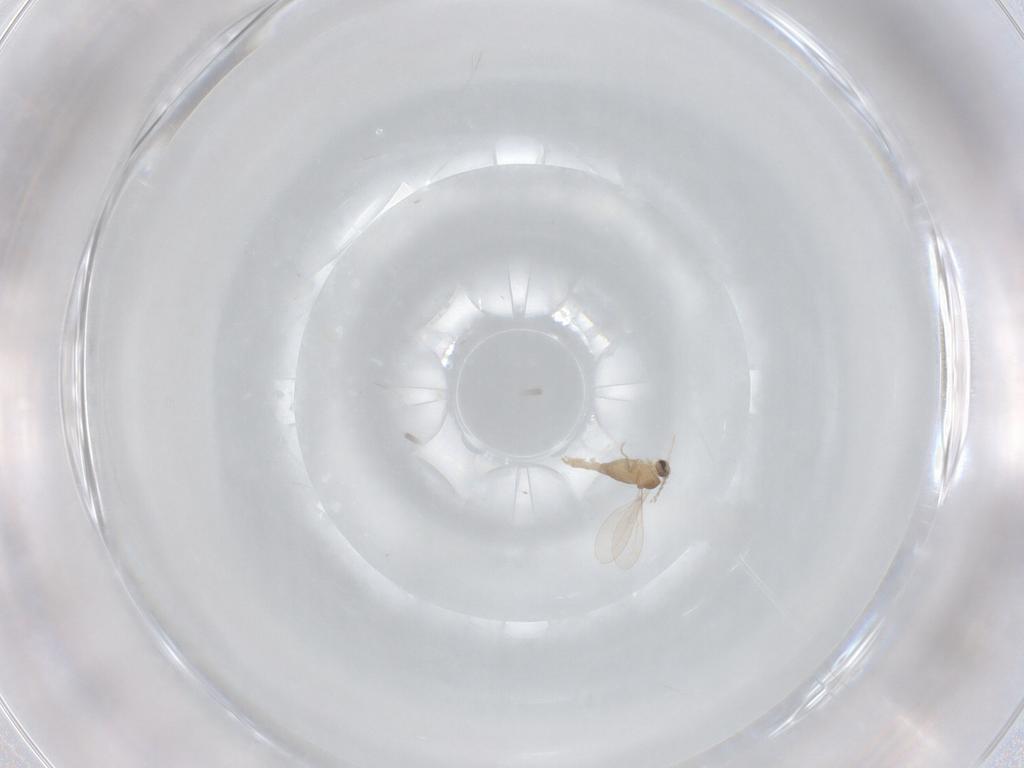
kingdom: Animalia
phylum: Arthropoda
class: Insecta
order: Diptera
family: Cecidomyiidae
